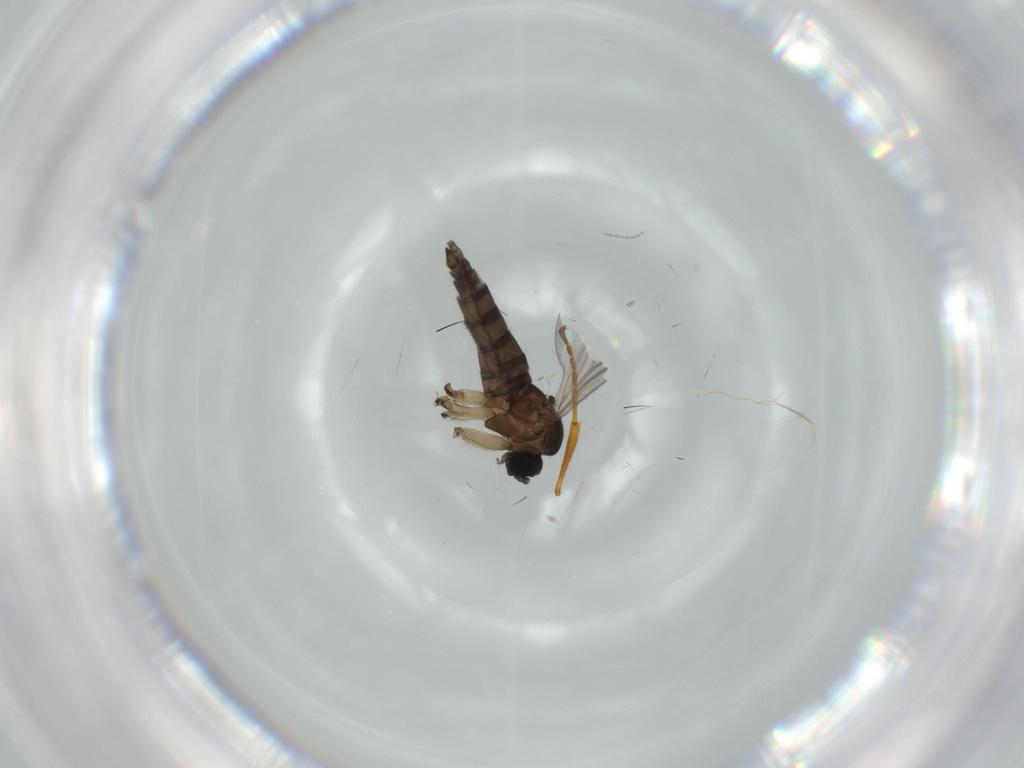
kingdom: Animalia
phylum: Arthropoda
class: Insecta
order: Diptera
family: Cecidomyiidae
